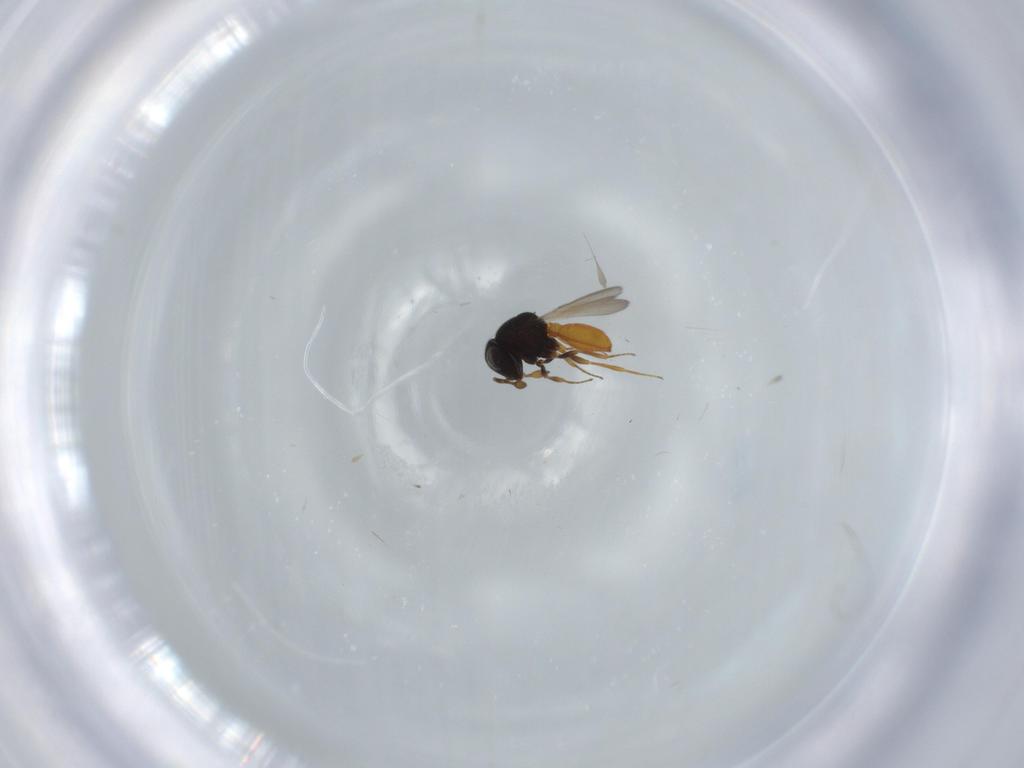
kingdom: Animalia
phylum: Arthropoda
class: Insecta
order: Hymenoptera
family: Scelionidae
